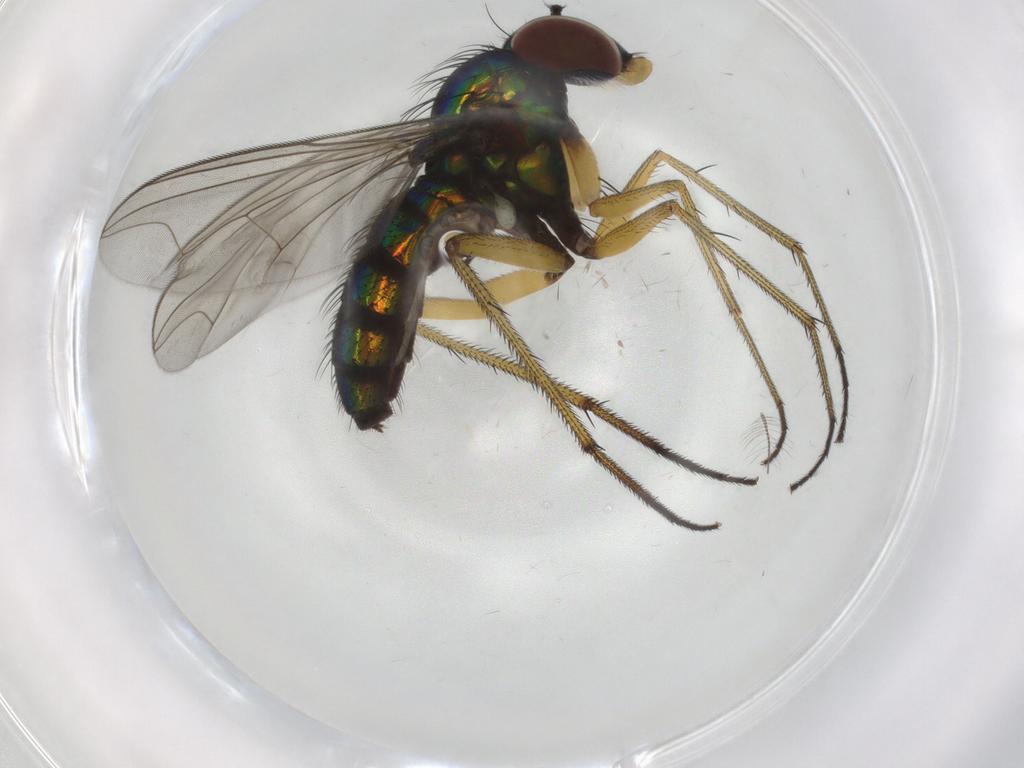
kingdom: Animalia
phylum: Arthropoda
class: Insecta
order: Diptera
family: Dolichopodidae
